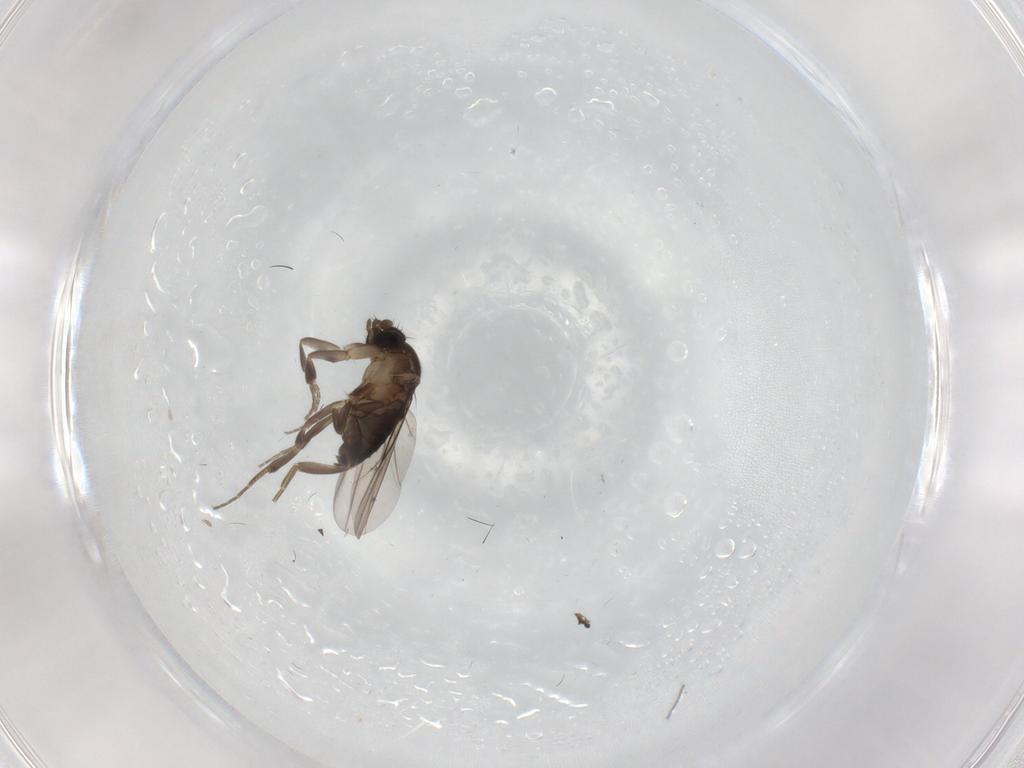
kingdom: Animalia
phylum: Arthropoda
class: Insecta
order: Diptera
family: Phoridae
